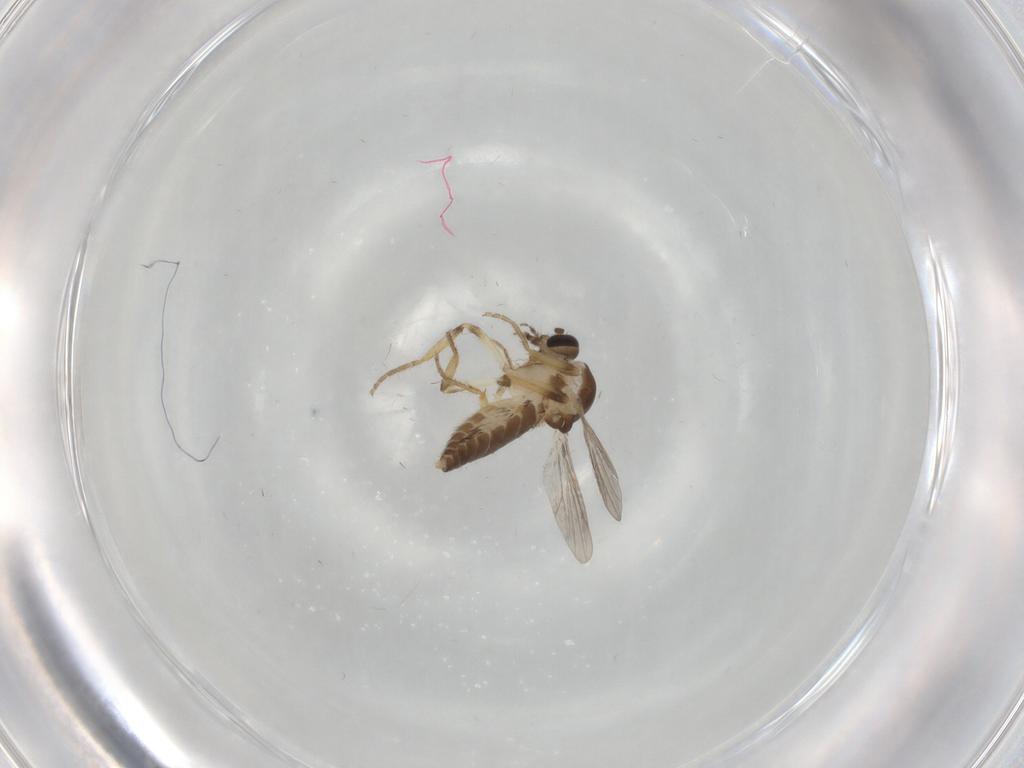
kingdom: Animalia
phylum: Arthropoda
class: Insecta
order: Diptera
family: Ceratopogonidae
